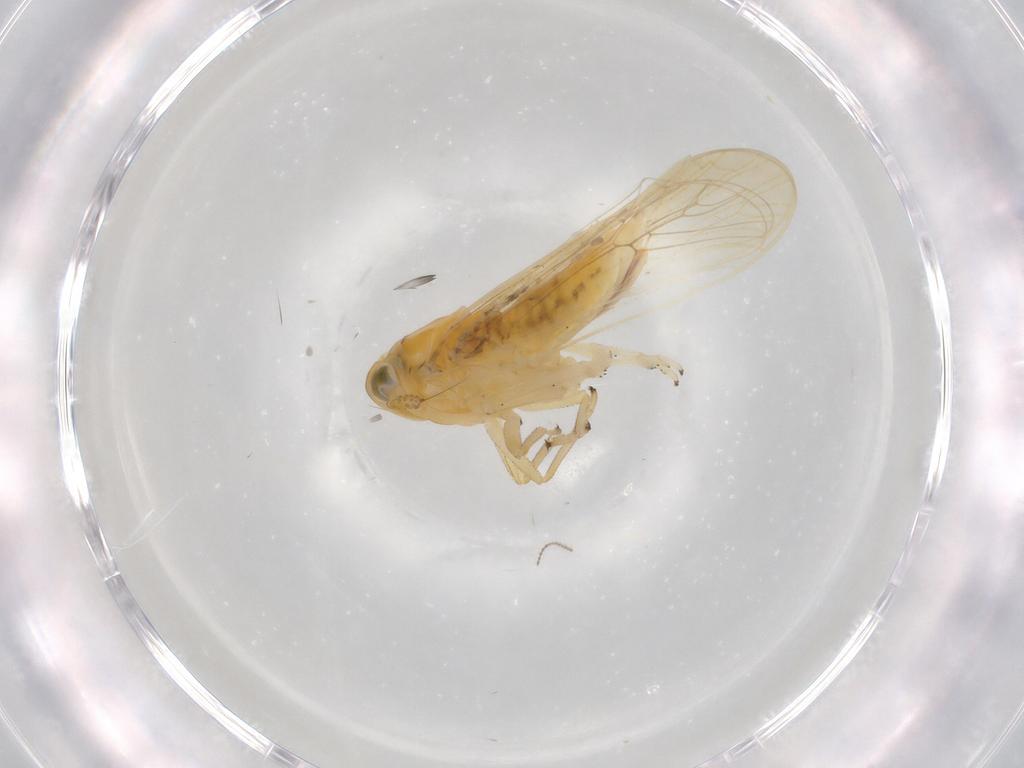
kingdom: Animalia
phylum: Arthropoda
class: Insecta
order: Hemiptera
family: Delphacidae
